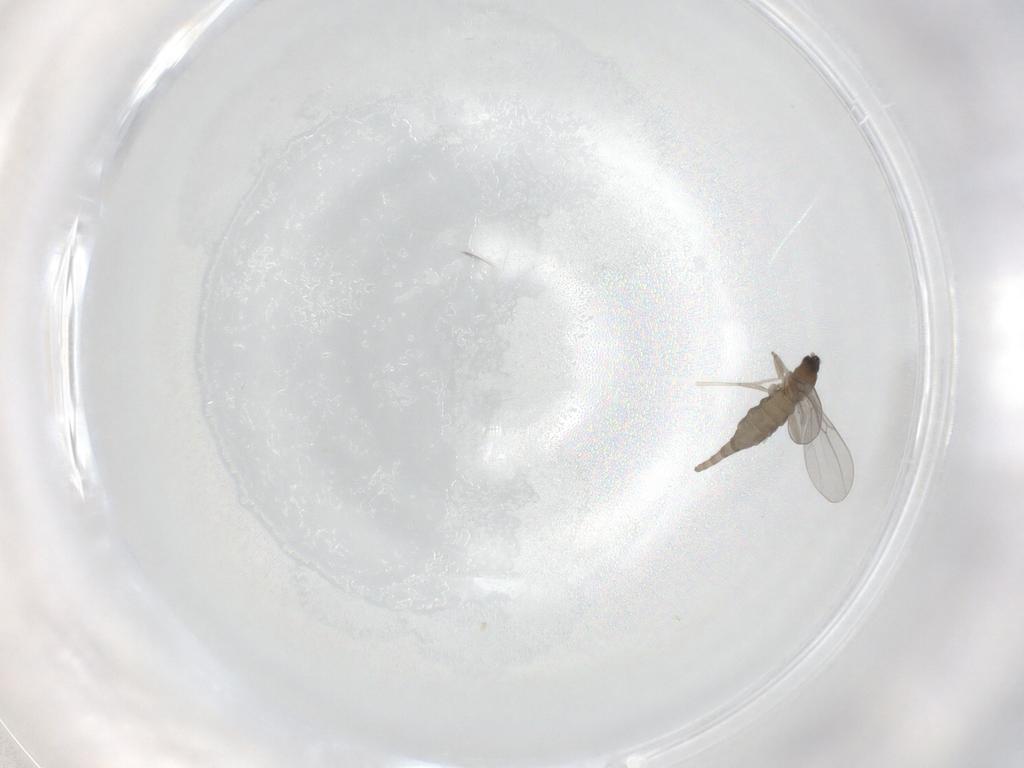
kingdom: Animalia
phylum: Arthropoda
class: Insecta
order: Diptera
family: Cecidomyiidae
